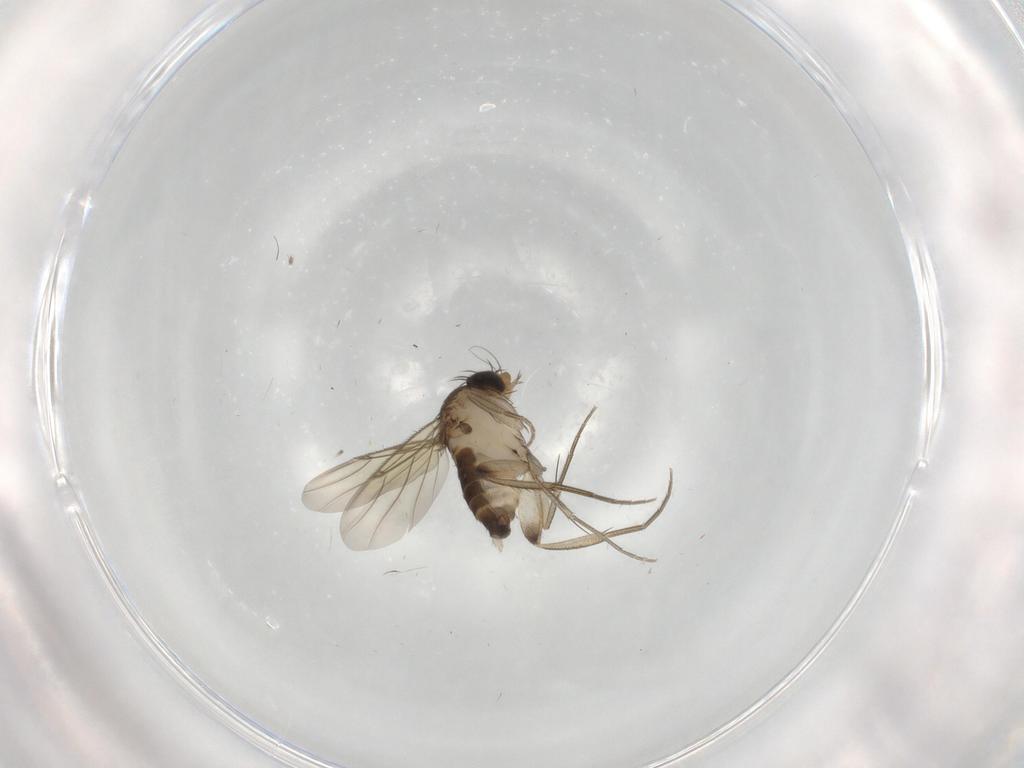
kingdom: Animalia
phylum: Arthropoda
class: Insecta
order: Diptera
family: Phoridae
